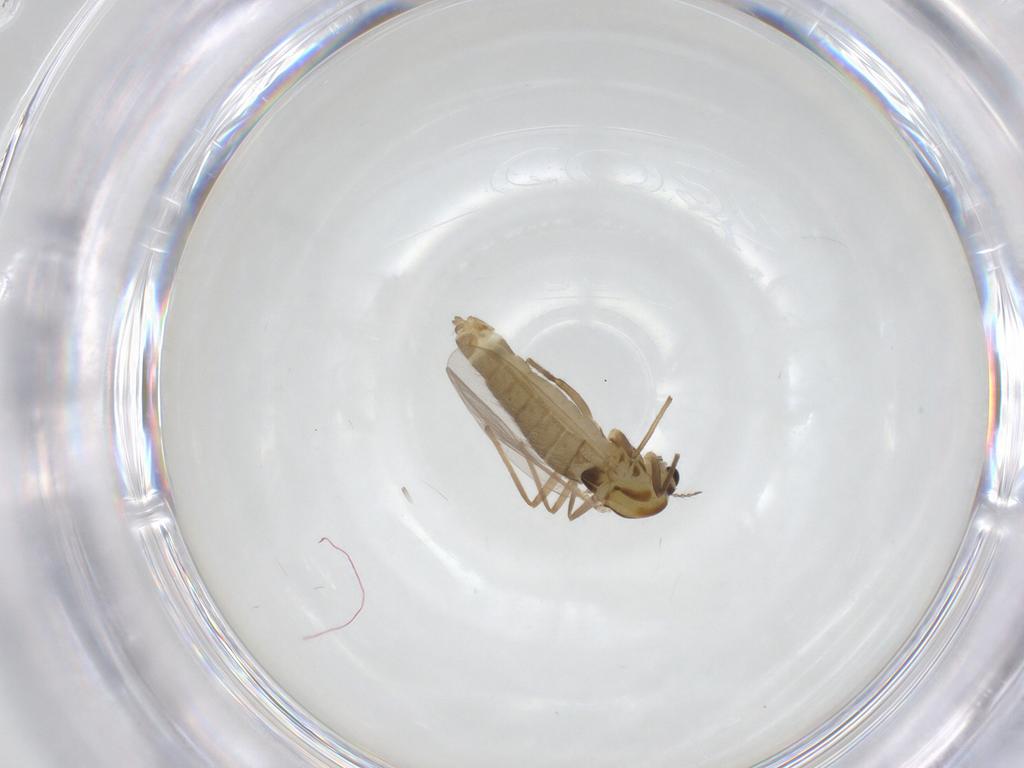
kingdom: Animalia
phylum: Arthropoda
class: Insecta
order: Diptera
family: Chironomidae
